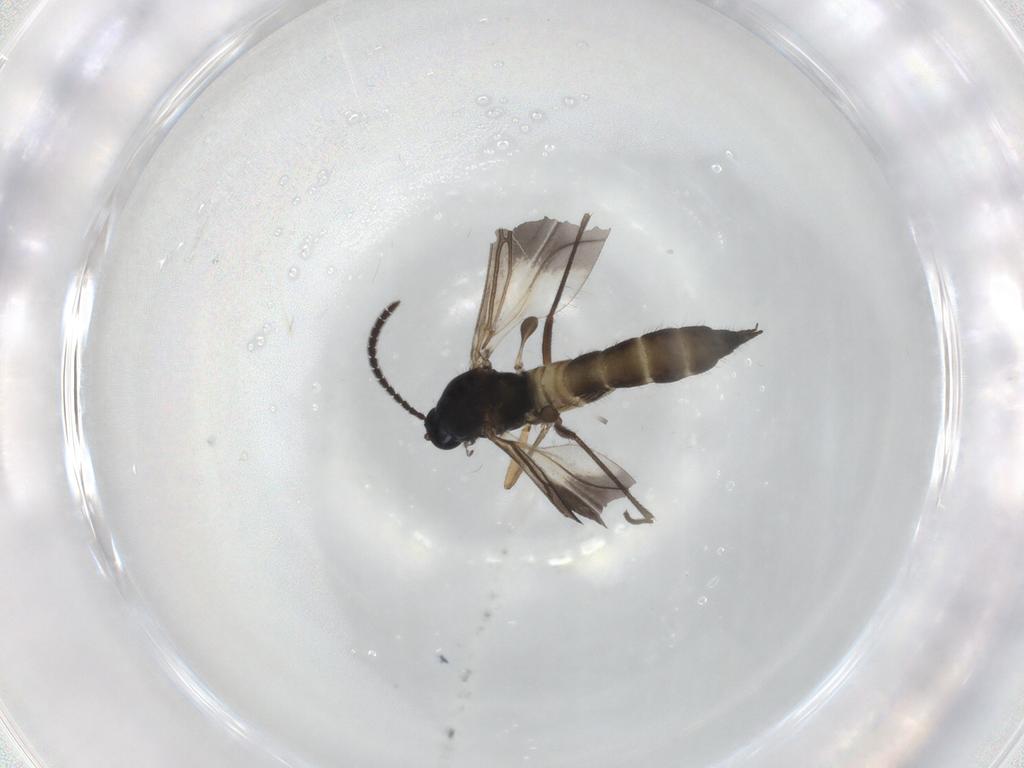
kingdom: Animalia
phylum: Arthropoda
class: Insecta
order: Diptera
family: Sciaridae
